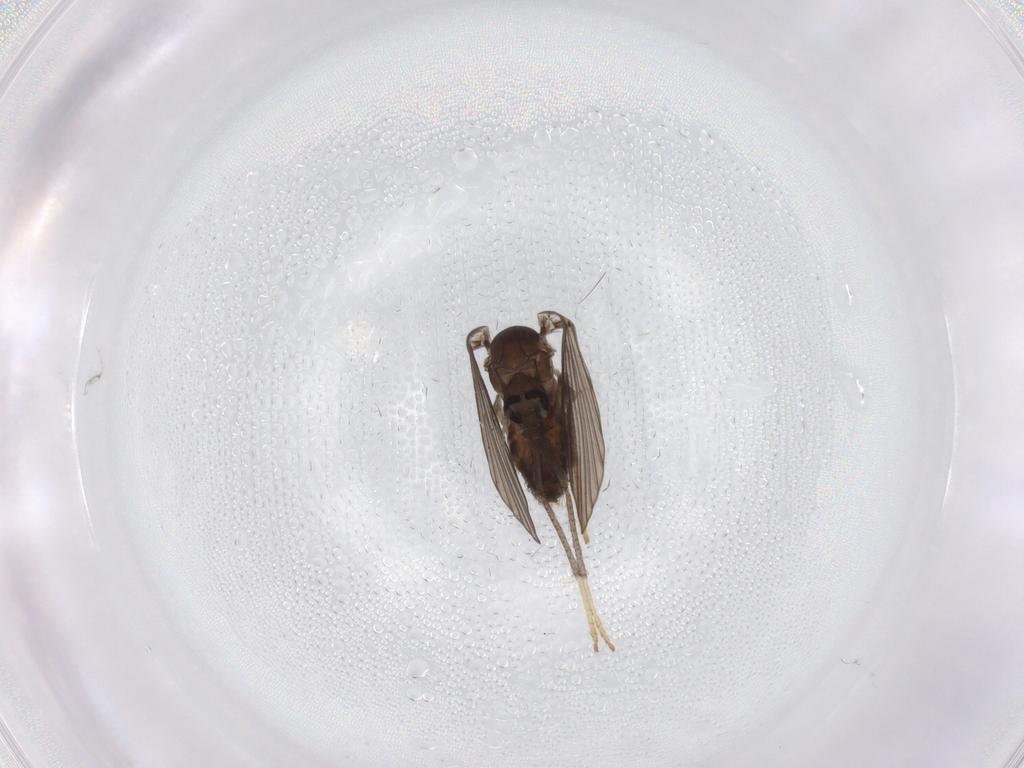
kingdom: Animalia
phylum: Arthropoda
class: Insecta
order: Diptera
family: Psychodidae
